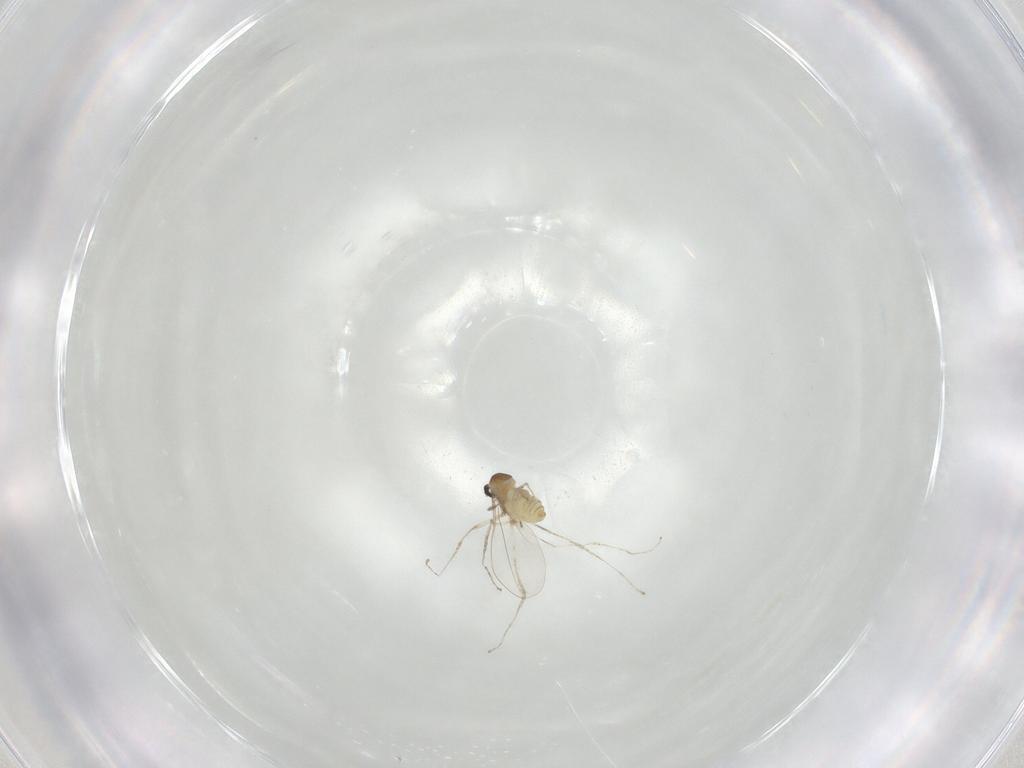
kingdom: Animalia
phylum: Arthropoda
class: Insecta
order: Diptera
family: Cecidomyiidae
